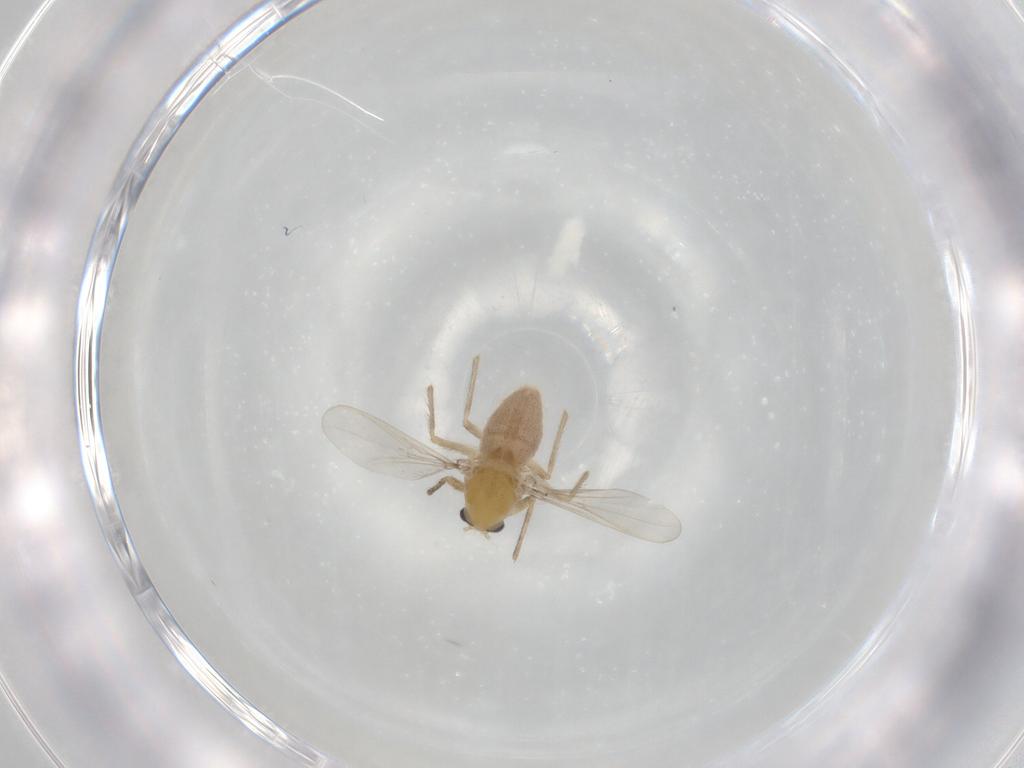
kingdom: Animalia
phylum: Arthropoda
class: Insecta
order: Diptera
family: Chironomidae
